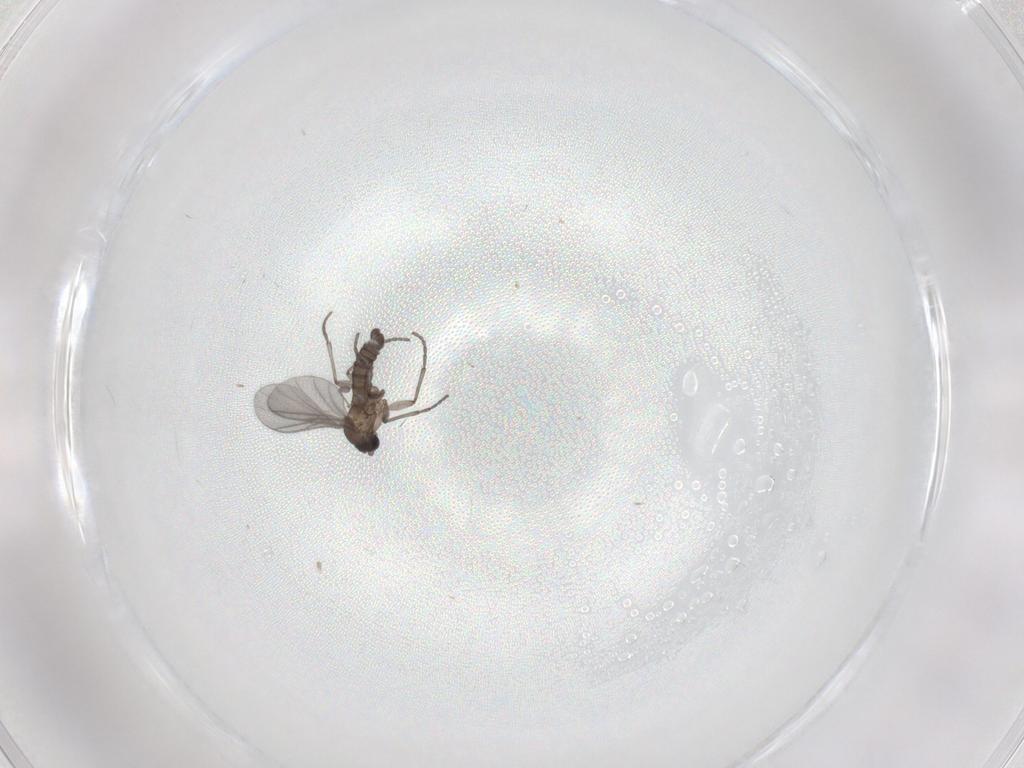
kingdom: Animalia
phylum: Arthropoda
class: Insecta
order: Diptera
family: Sciaridae
